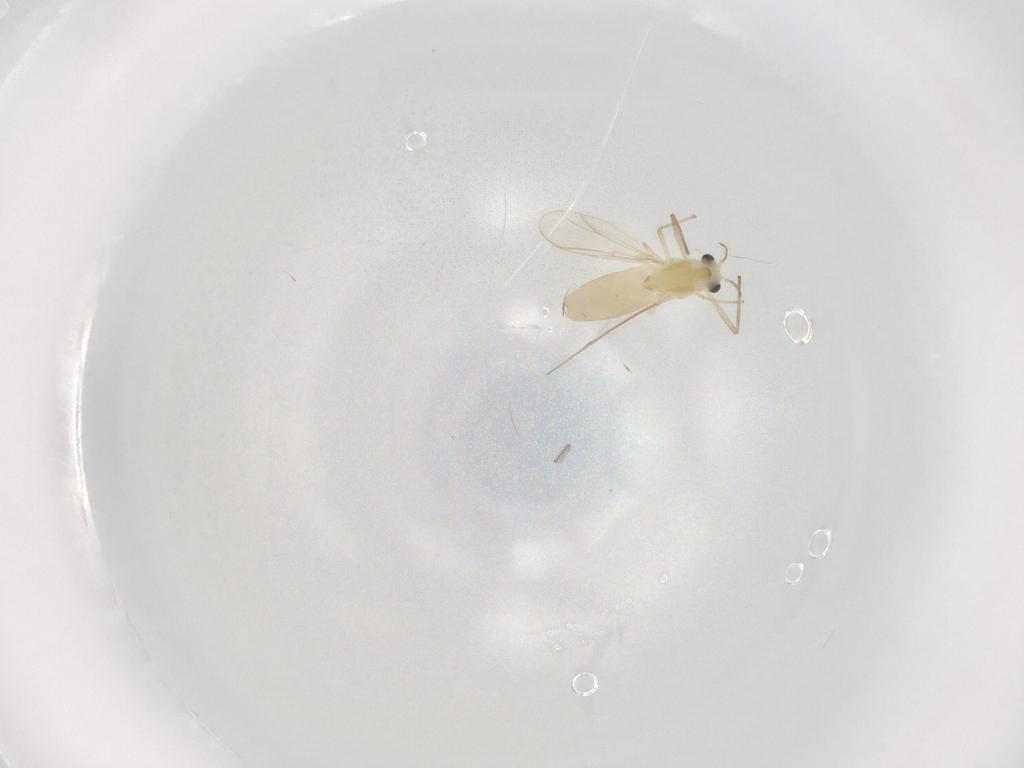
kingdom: Animalia
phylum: Arthropoda
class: Insecta
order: Diptera
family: Chironomidae
